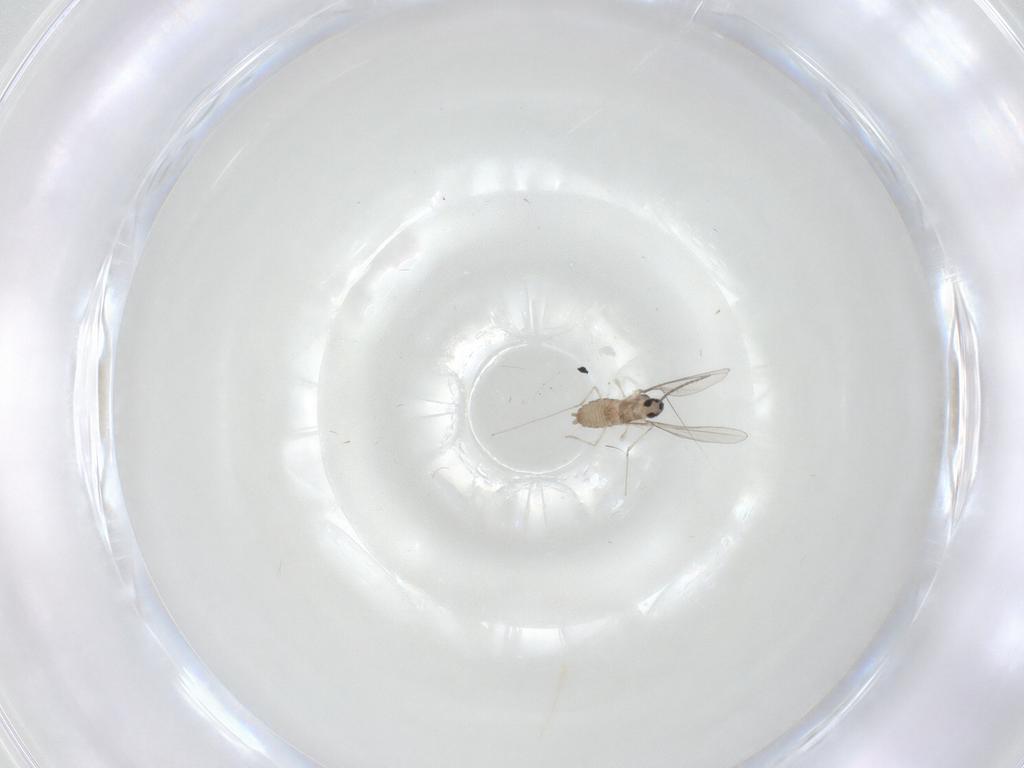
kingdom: Animalia
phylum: Arthropoda
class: Insecta
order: Diptera
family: Cecidomyiidae
